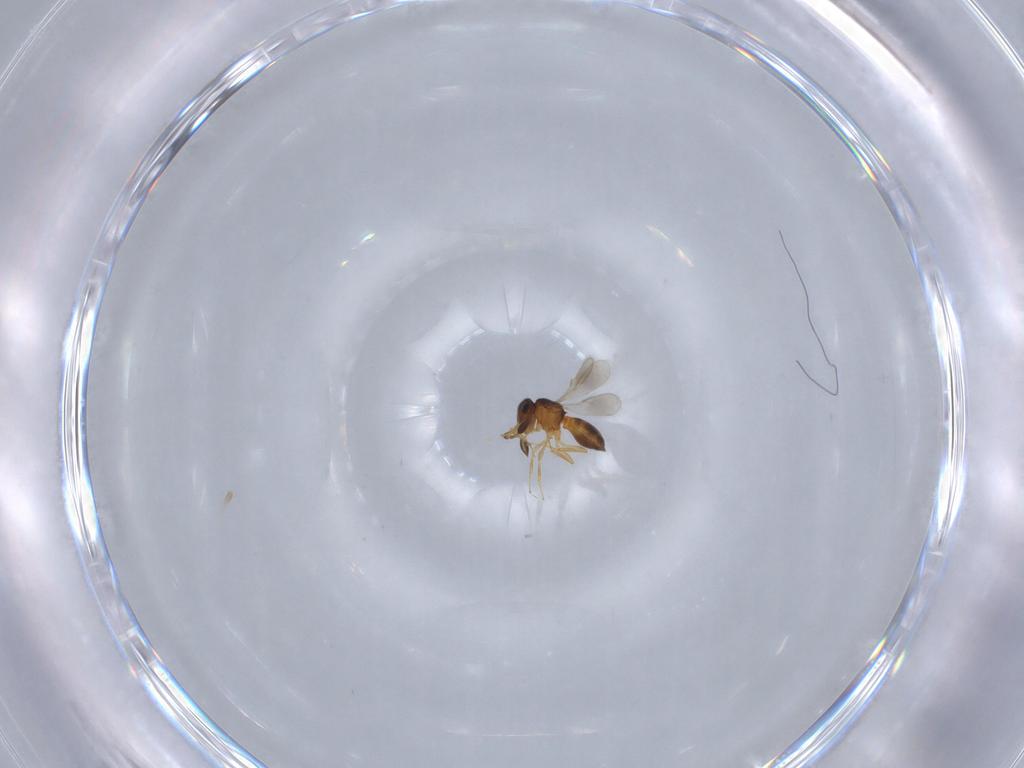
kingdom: Animalia
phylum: Arthropoda
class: Insecta
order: Hymenoptera
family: Scelionidae
